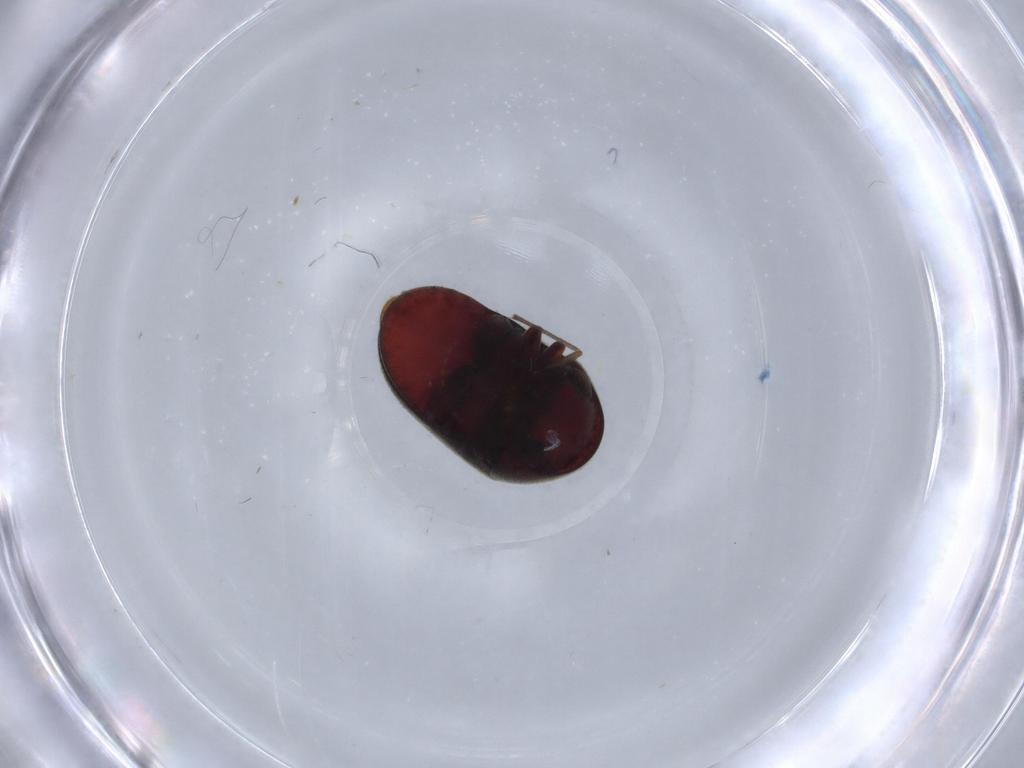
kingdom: Animalia
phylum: Arthropoda
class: Insecta
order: Coleoptera
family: Ptinidae
